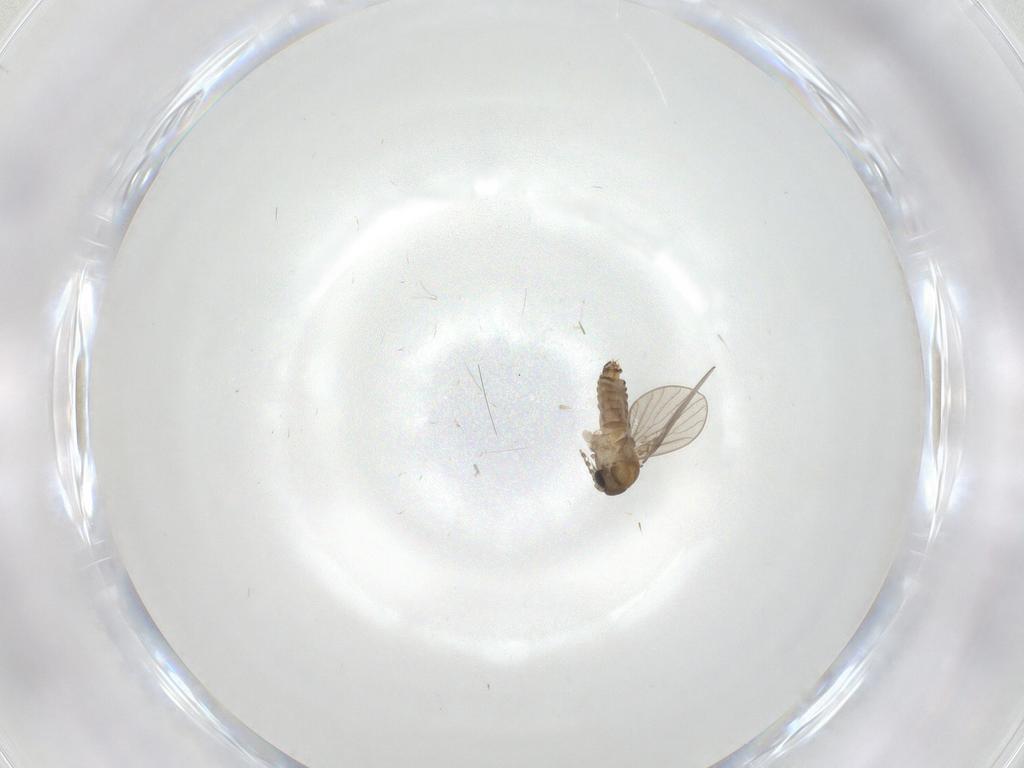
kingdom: Animalia
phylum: Arthropoda
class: Insecta
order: Diptera
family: Psychodidae
